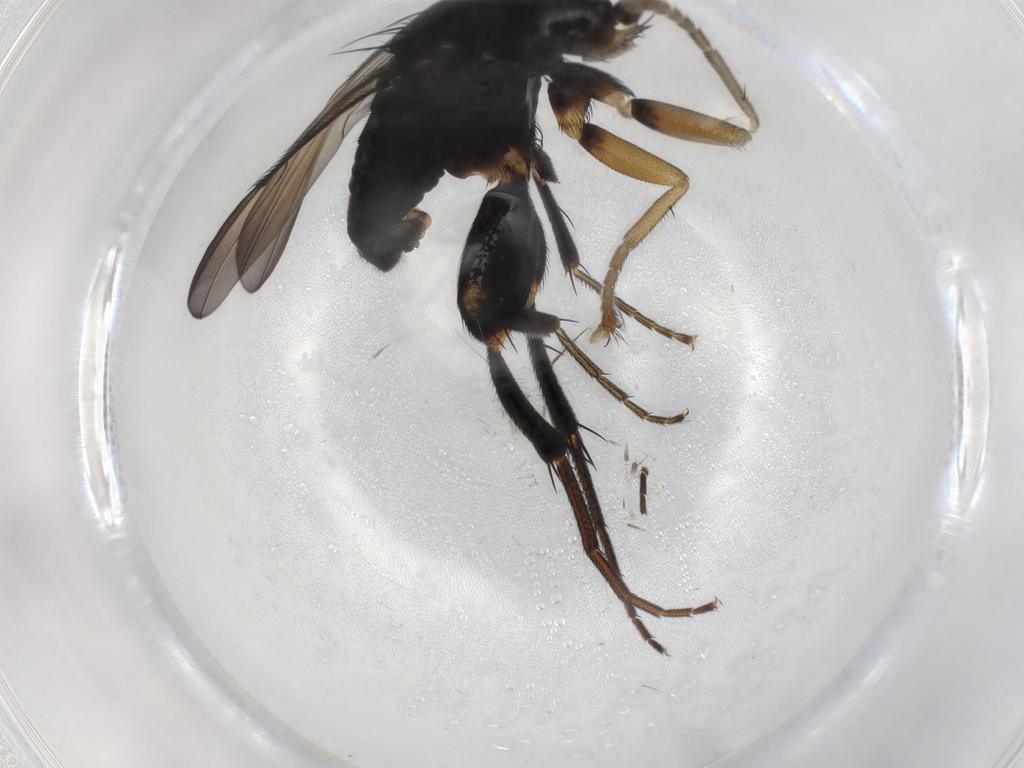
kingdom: Animalia
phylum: Arthropoda
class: Insecta
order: Diptera
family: Phoridae
